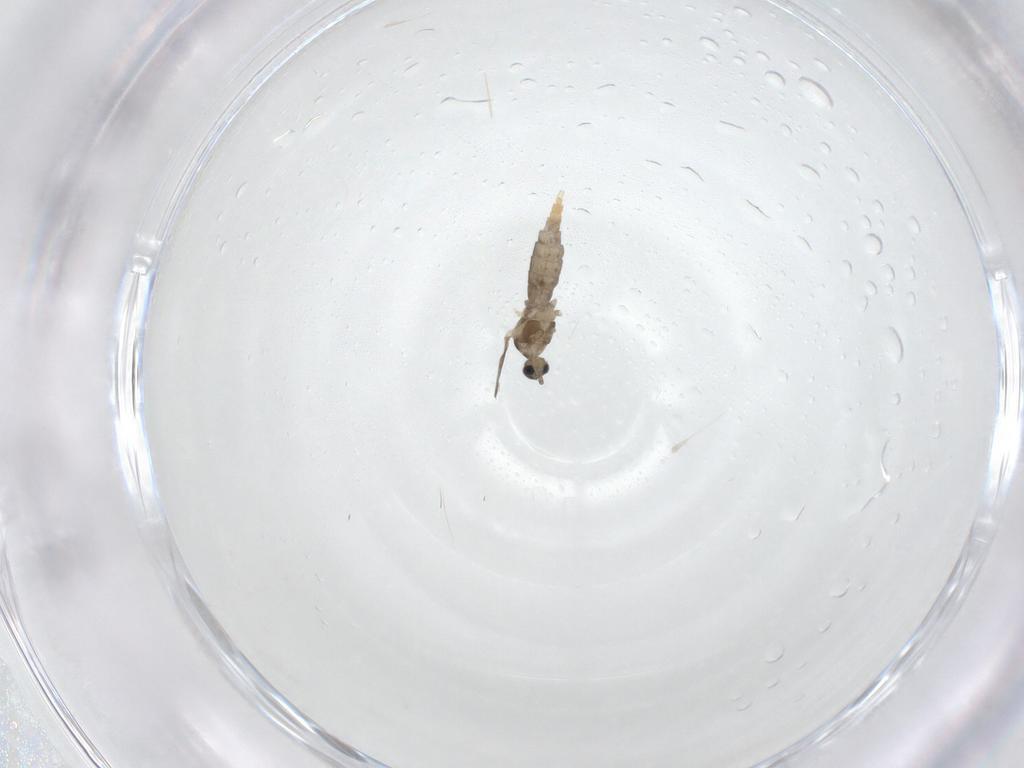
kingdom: Animalia
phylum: Arthropoda
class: Insecta
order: Diptera
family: Cecidomyiidae
